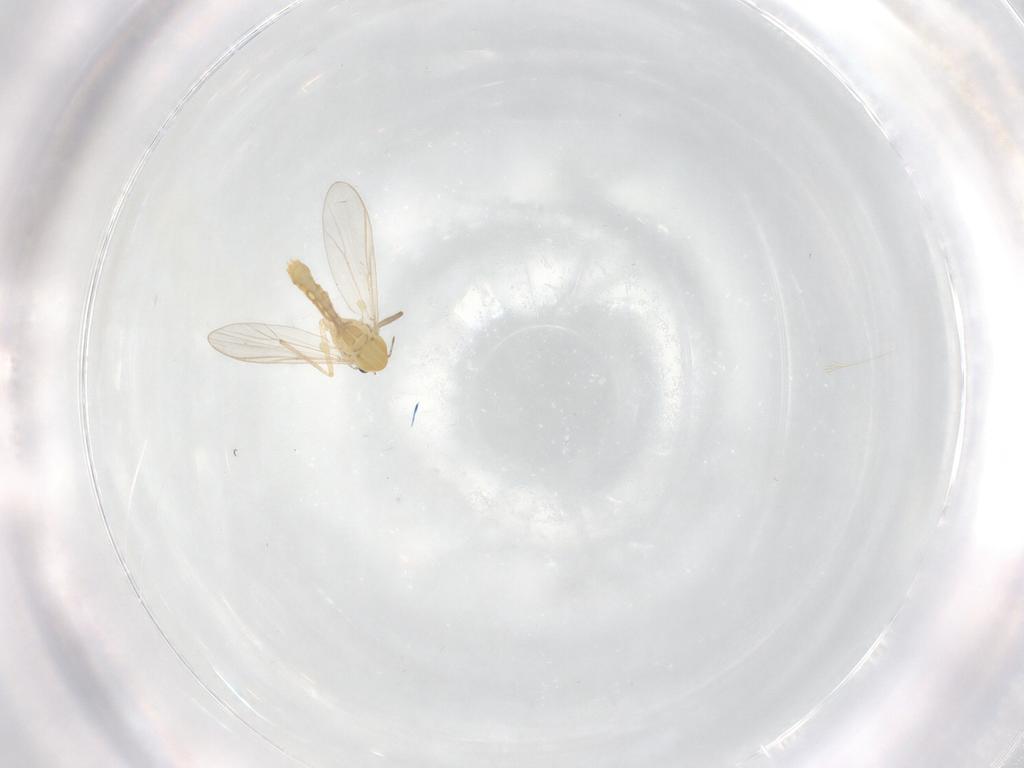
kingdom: Animalia
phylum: Arthropoda
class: Insecta
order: Diptera
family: Chironomidae
